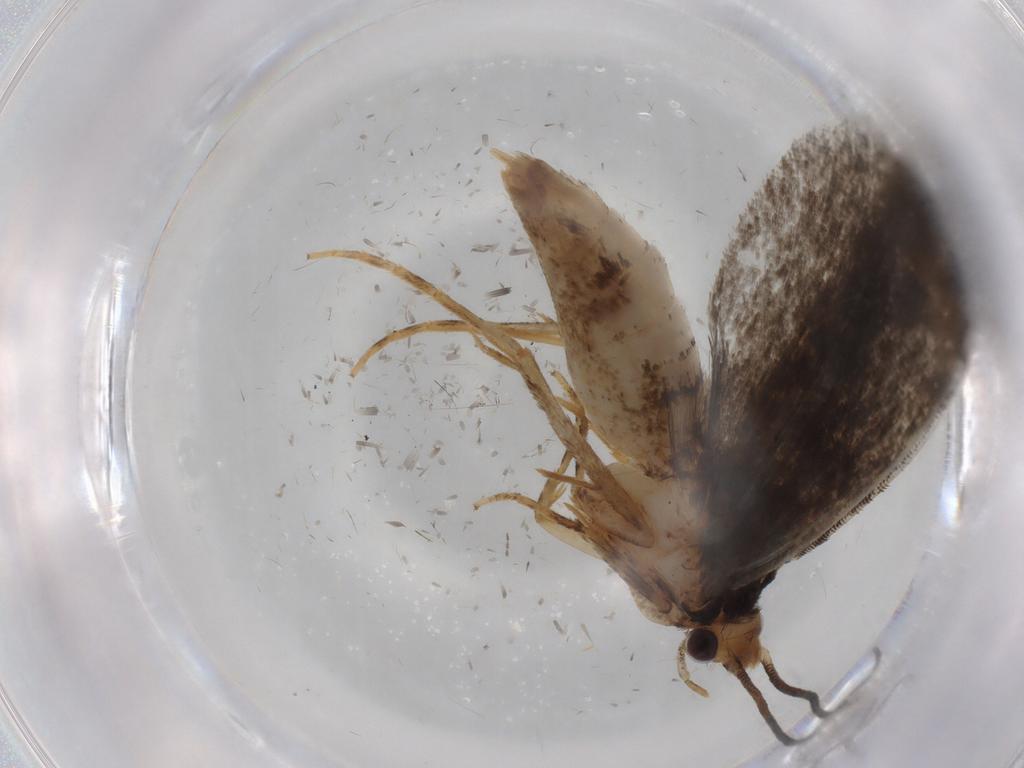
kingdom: Animalia
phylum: Arthropoda
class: Insecta
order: Lepidoptera
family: Tineidae
